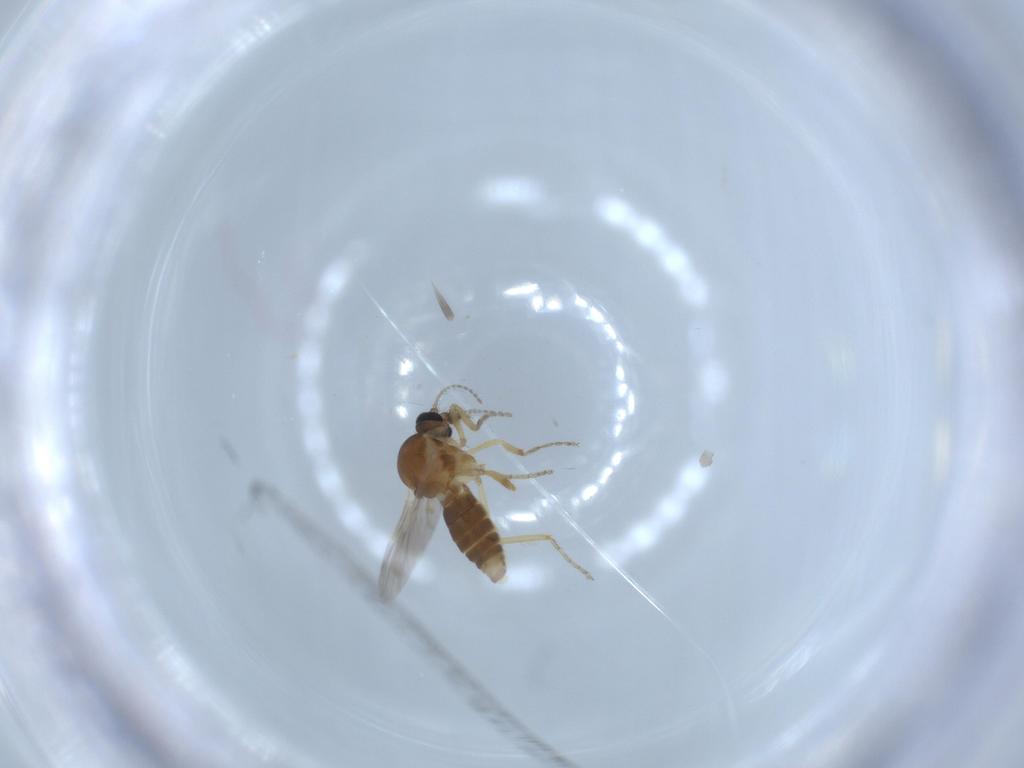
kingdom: Animalia
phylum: Arthropoda
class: Insecta
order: Diptera
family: Ceratopogonidae
